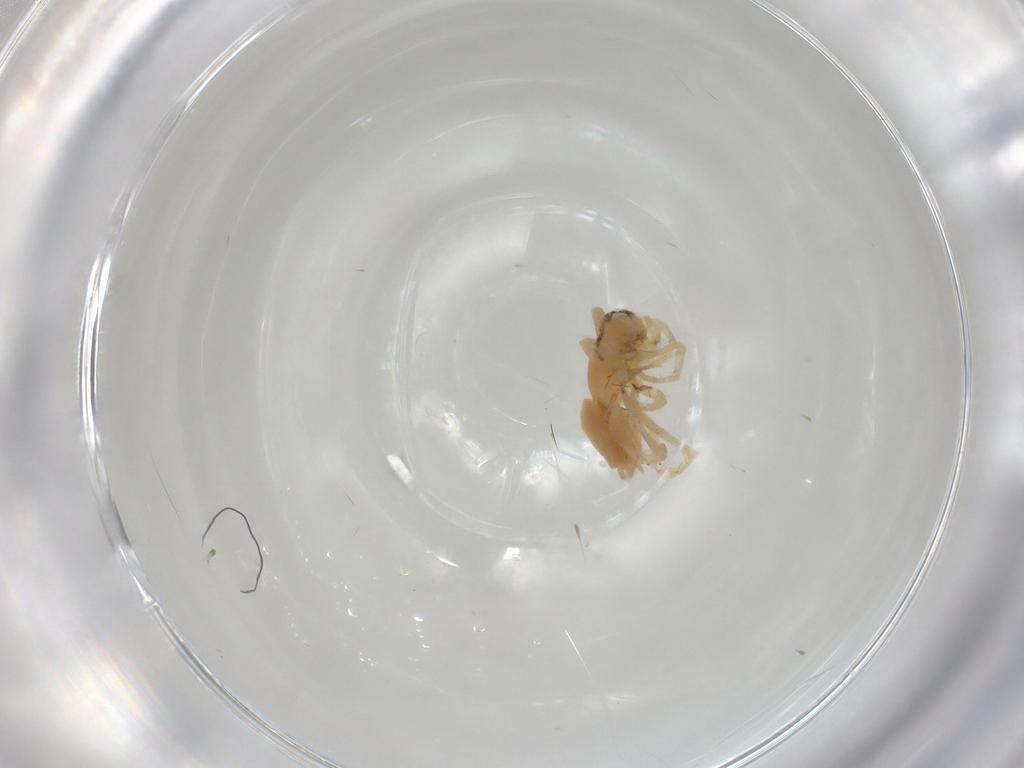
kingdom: Animalia
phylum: Arthropoda
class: Arachnida
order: Araneae
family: Clubionidae
